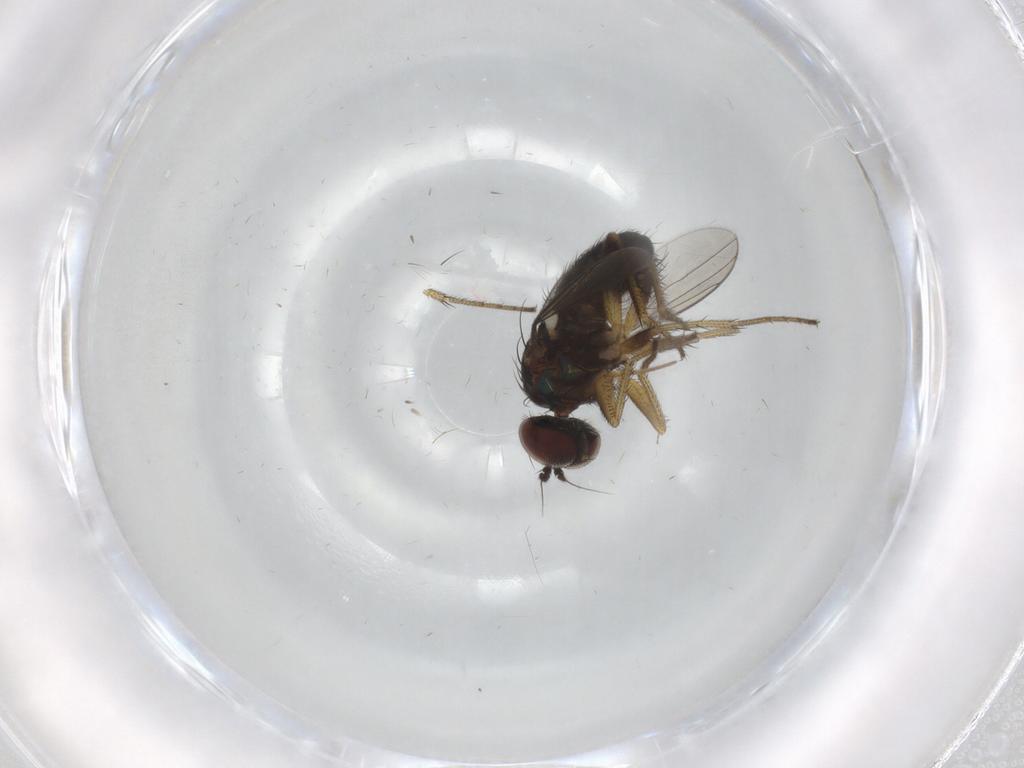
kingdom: Animalia
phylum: Arthropoda
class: Insecta
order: Diptera
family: Dolichopodidae
